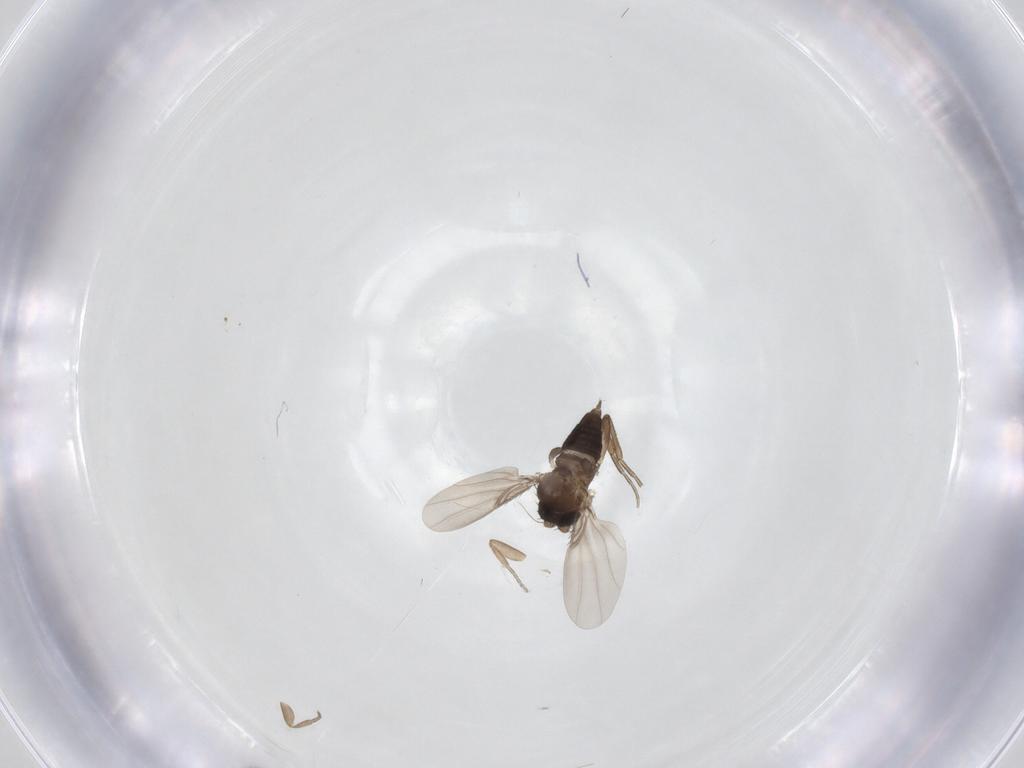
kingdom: Animalia
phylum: Arthropoda
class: Insecta
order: Diptera
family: Phoridae
